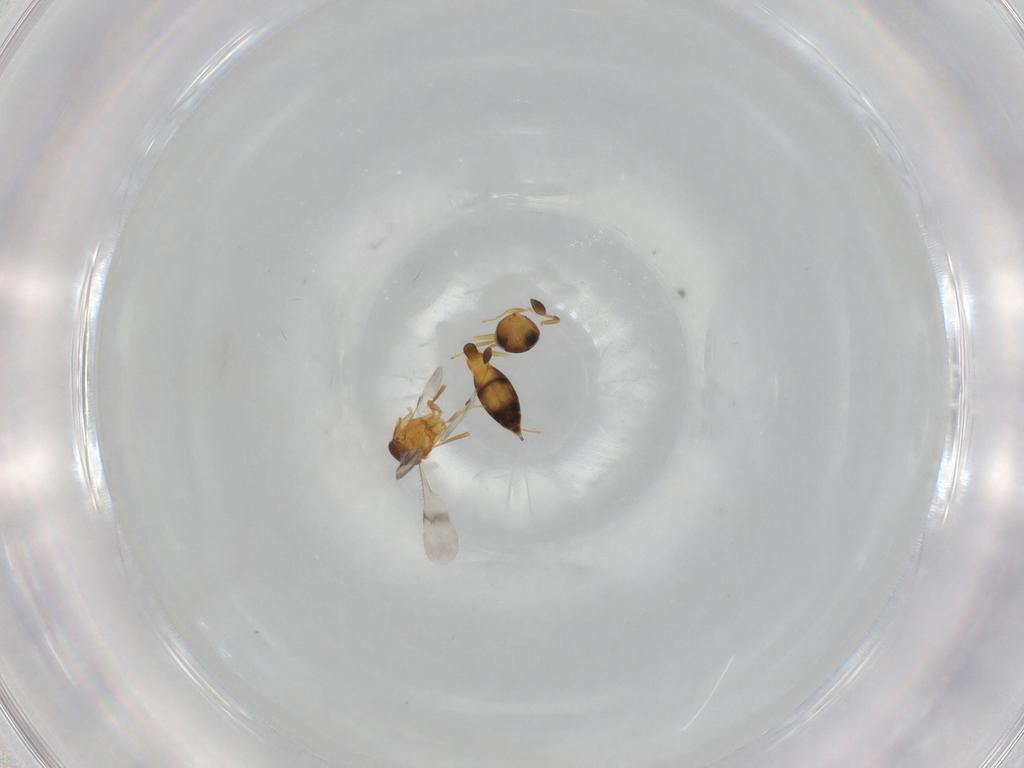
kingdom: Animalia
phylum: Arthropoda
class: Insecta
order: Hymenoptera
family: Scelionidae
